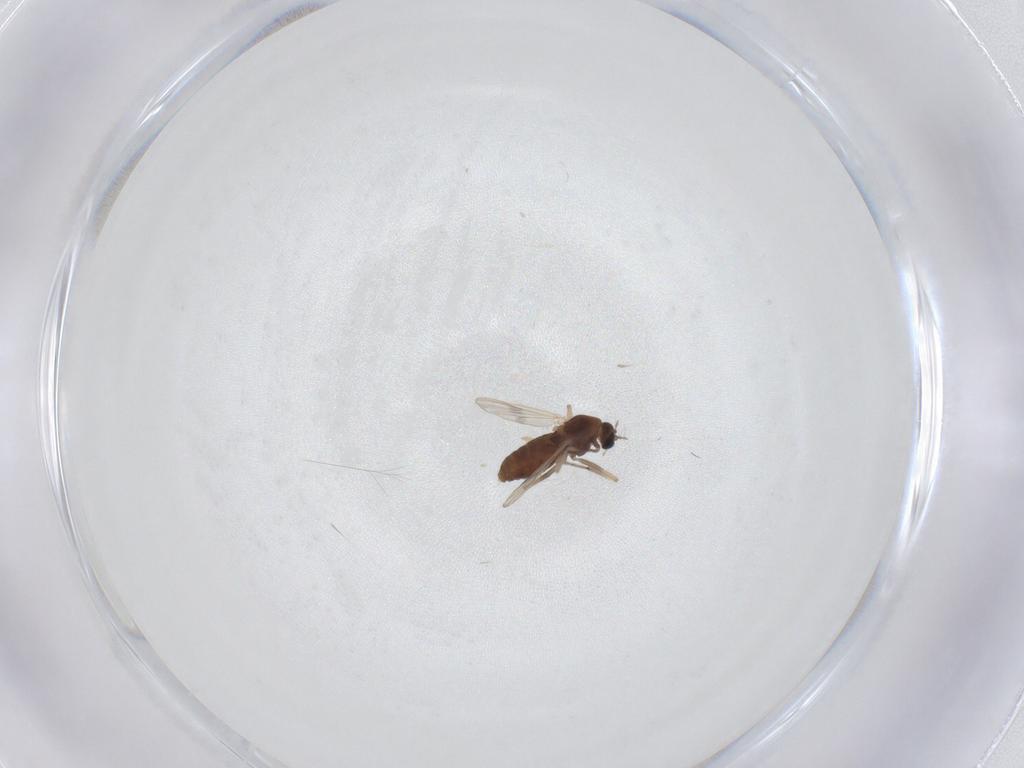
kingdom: Animalia
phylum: Arthropoda
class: Insecta
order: Diptera
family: Chironomidae
